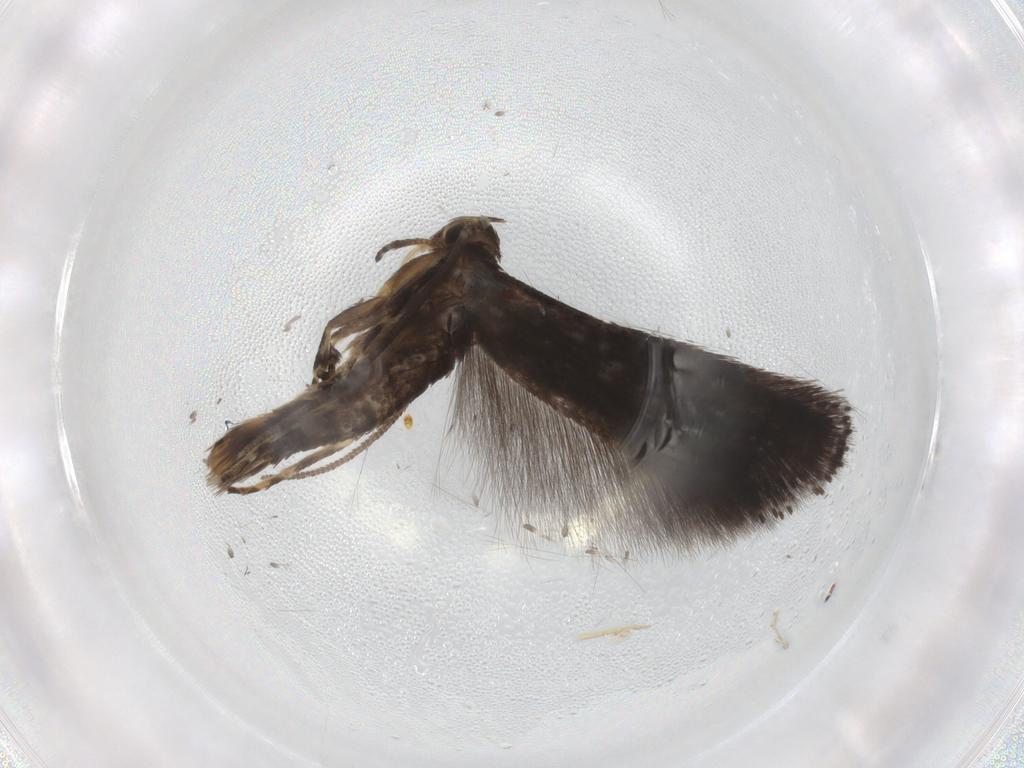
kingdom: Animalia
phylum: Arthropoda
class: Insecta
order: Lepidoptera
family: Elachistidae
